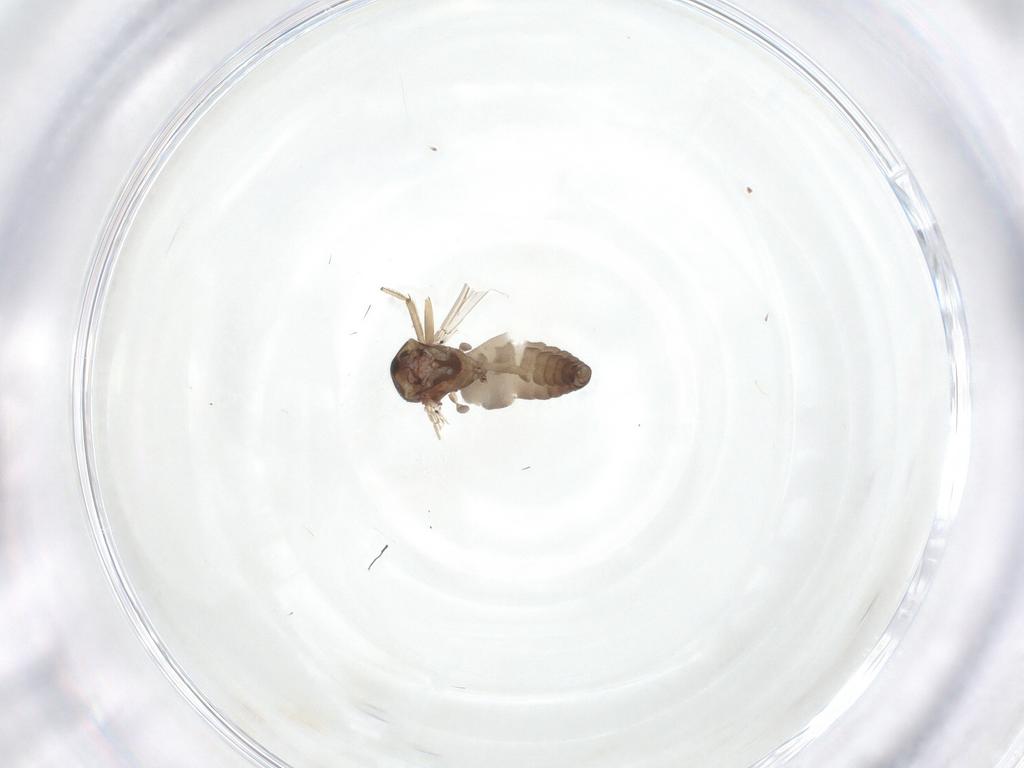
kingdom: Animalia
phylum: Arthropoda
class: Insecta
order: Diptera
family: Ceratopogonidae
